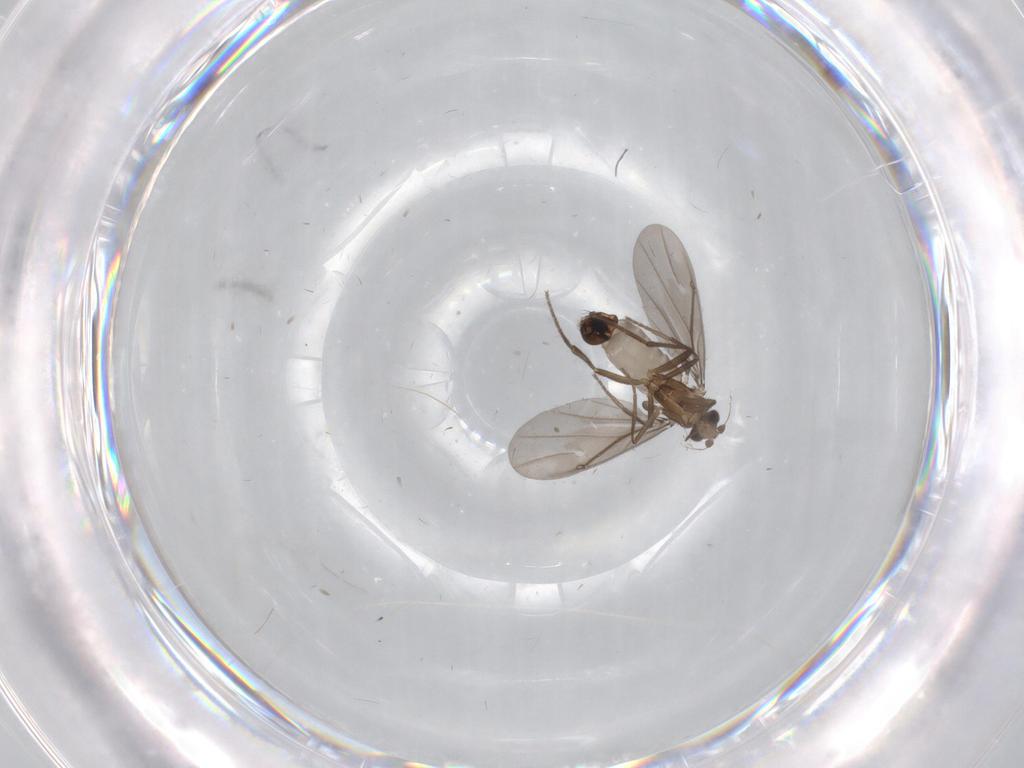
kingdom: Animalia
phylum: Arthropoda
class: Insecta
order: Diptera
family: Phoridae
